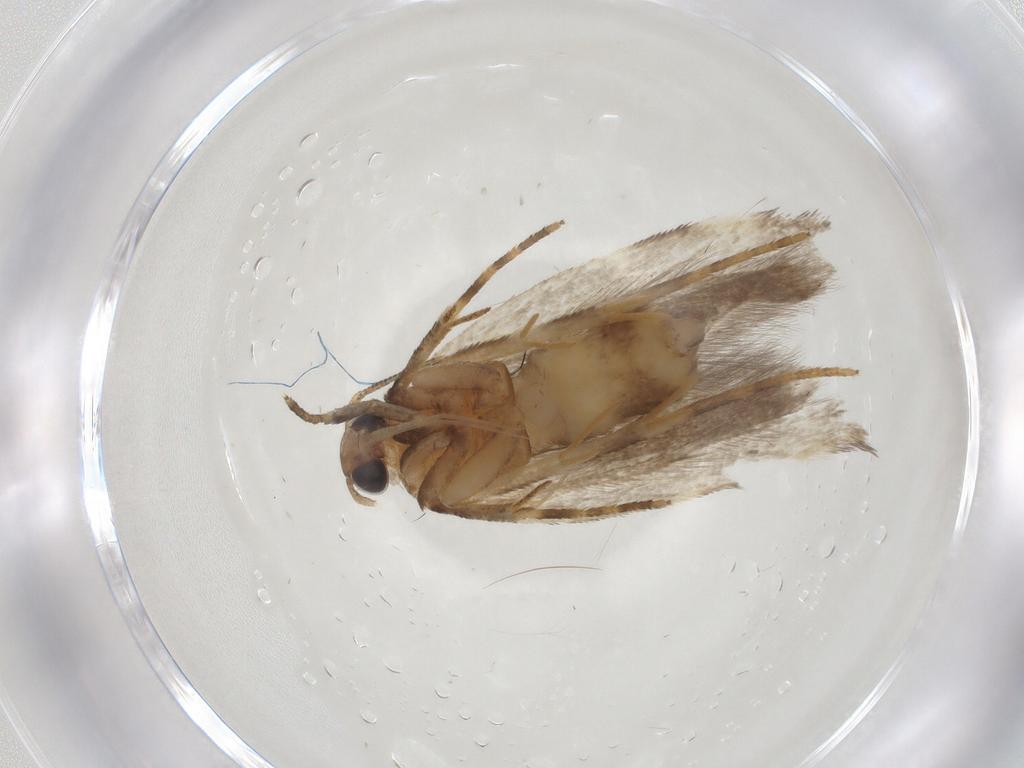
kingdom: Animalia
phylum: Arthropoda
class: Insecta
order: Lepidoptera
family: Gelechiidae
